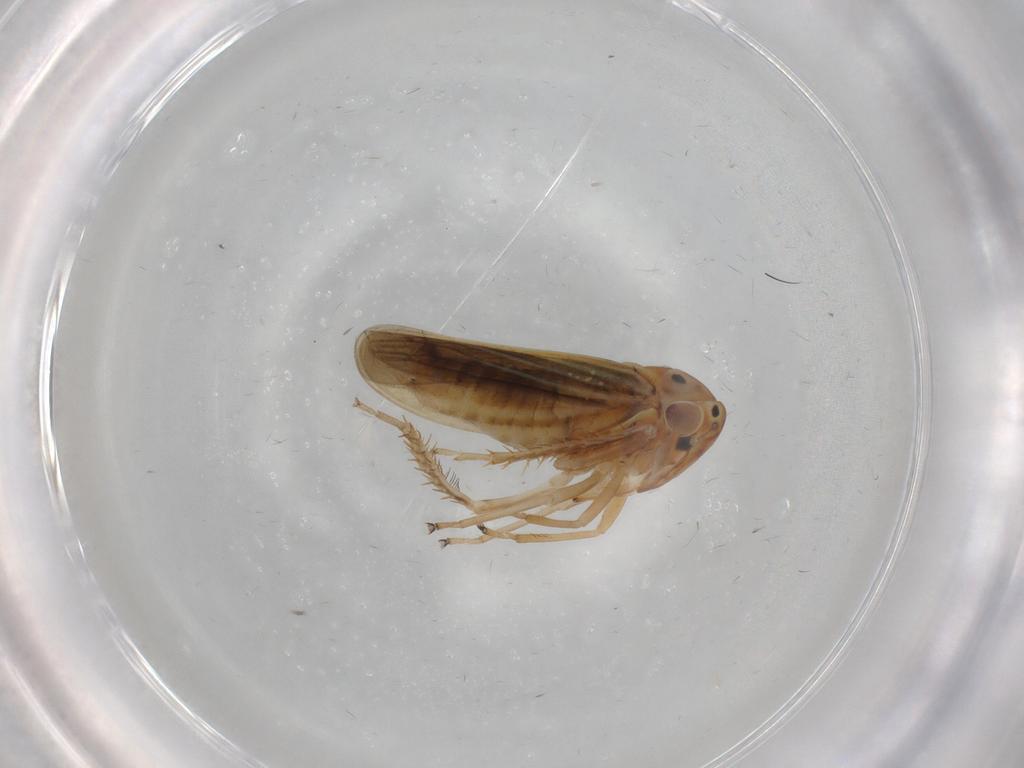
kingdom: Animalia
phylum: Arthropoda
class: Insecta
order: Hemiptera
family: Cicadellidae
